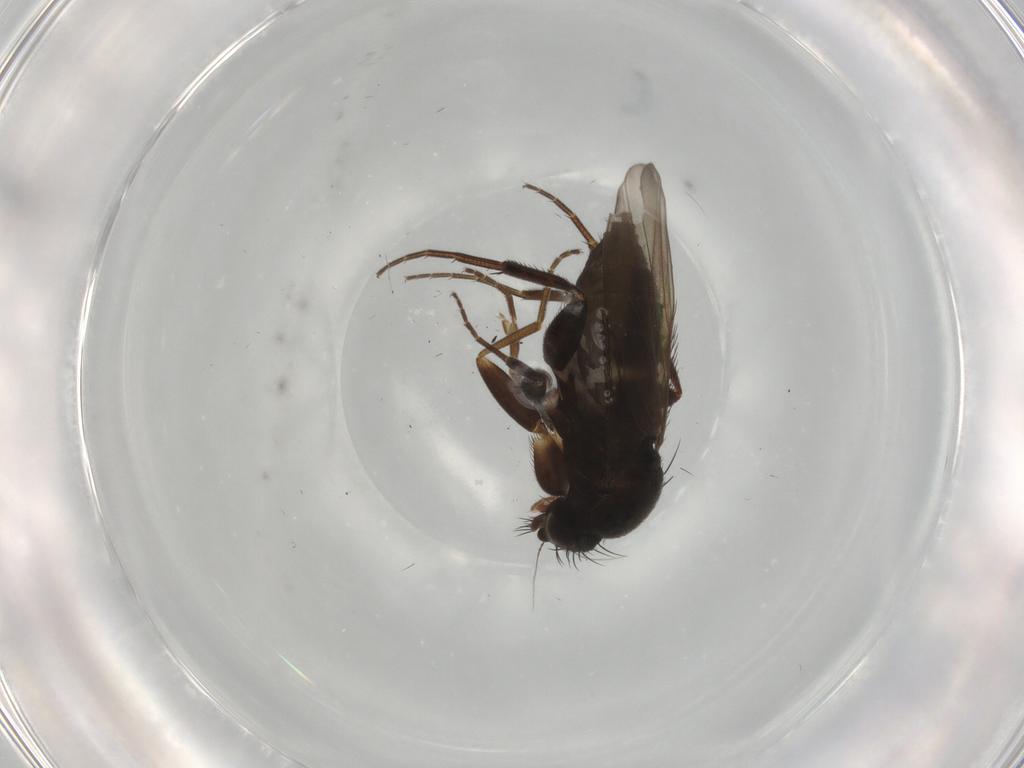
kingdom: Animalia
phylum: Arthropoda
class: Insecta
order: Diptera
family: Phoridae
